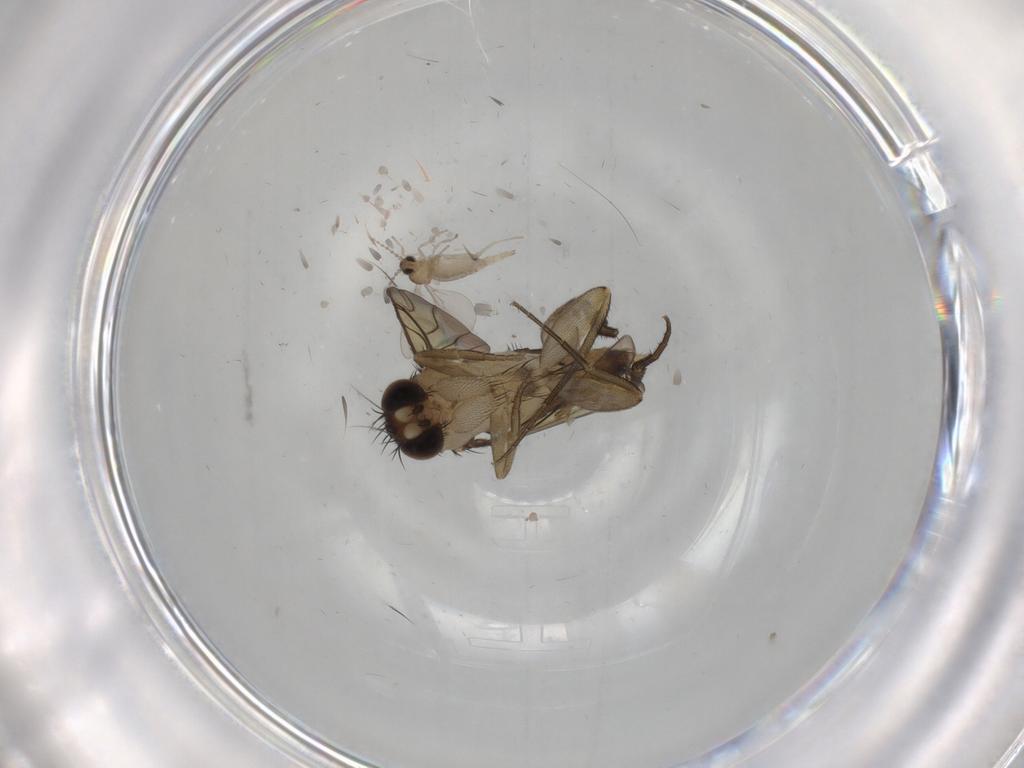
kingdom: Animalia
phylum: Arthropoda
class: Insecta
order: Diptera
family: Phoridae
